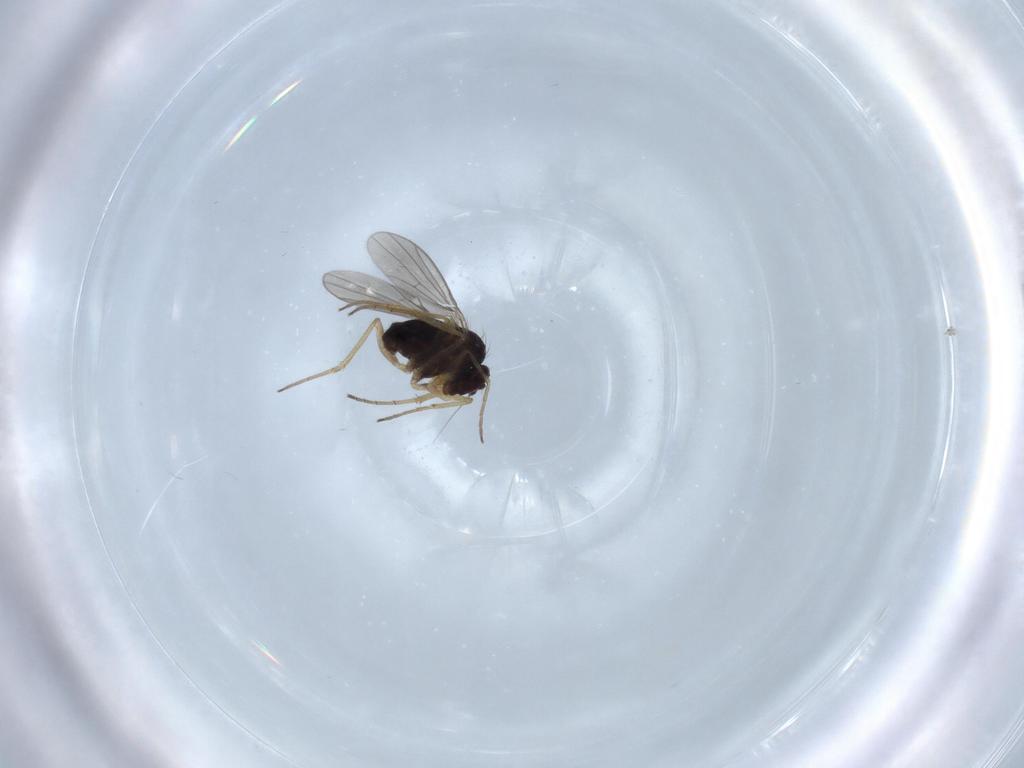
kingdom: Animalia
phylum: Arthropoda
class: Insecta
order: Diptera
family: Dolichopodidae
